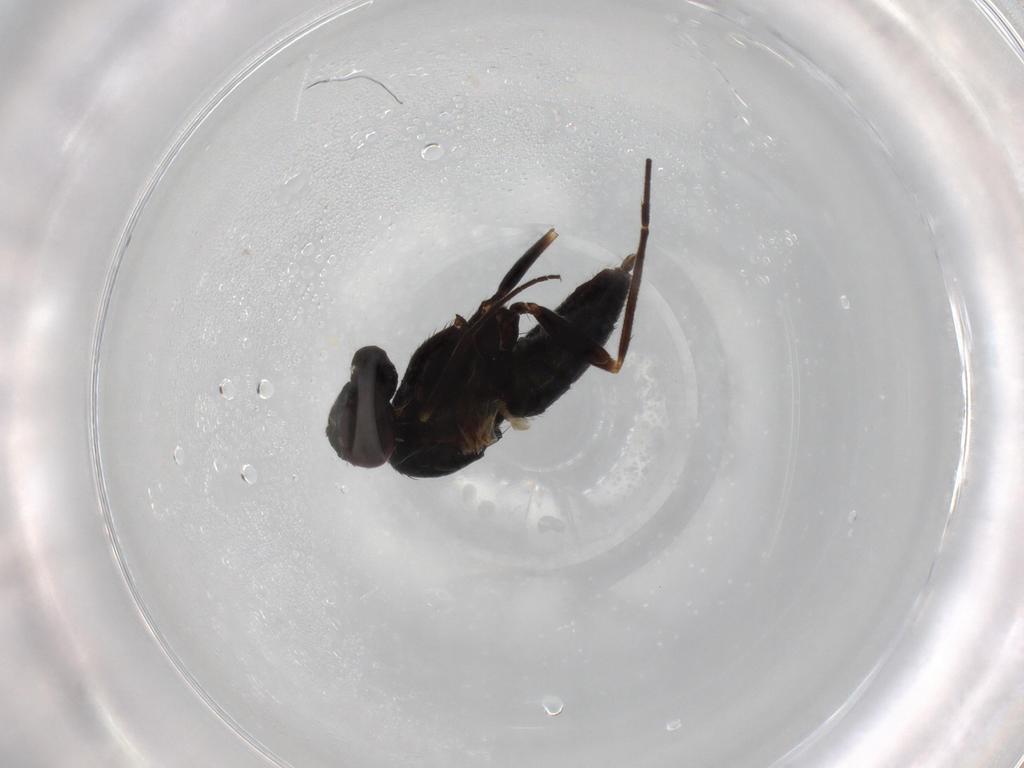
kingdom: Animalia
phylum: Arthropoda
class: Insecta
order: Diptera
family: Dolichopodidae
